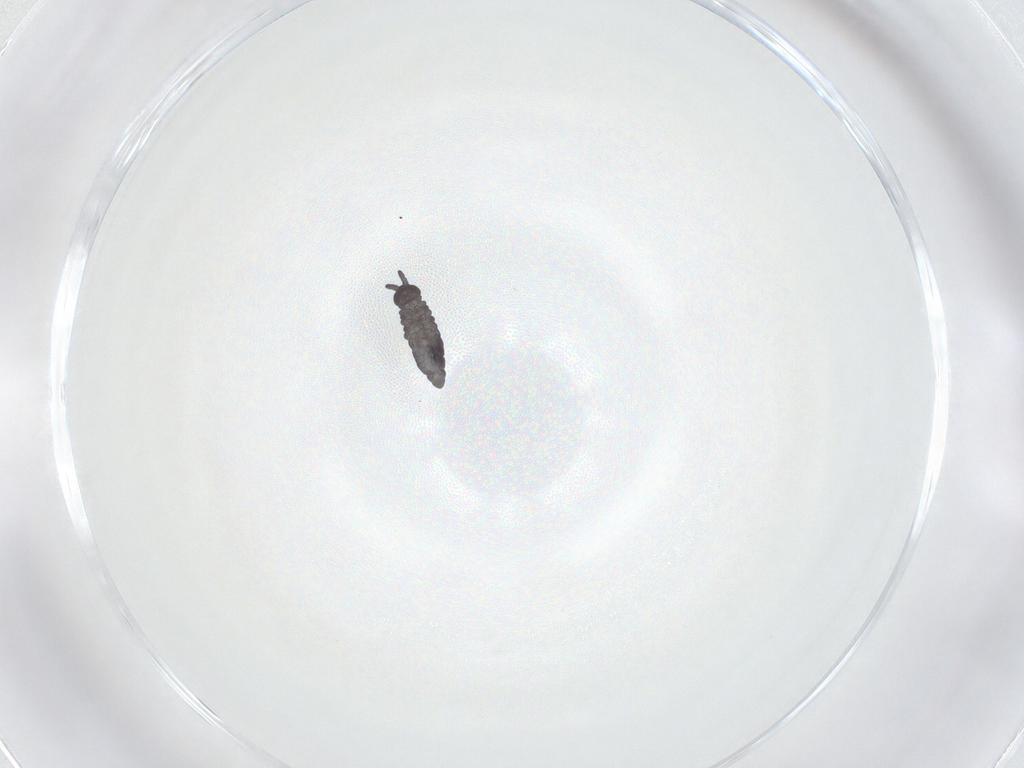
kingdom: Animalia
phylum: Arthropoda
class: Collembola
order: Poduromorpha
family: Hypogastruridae
